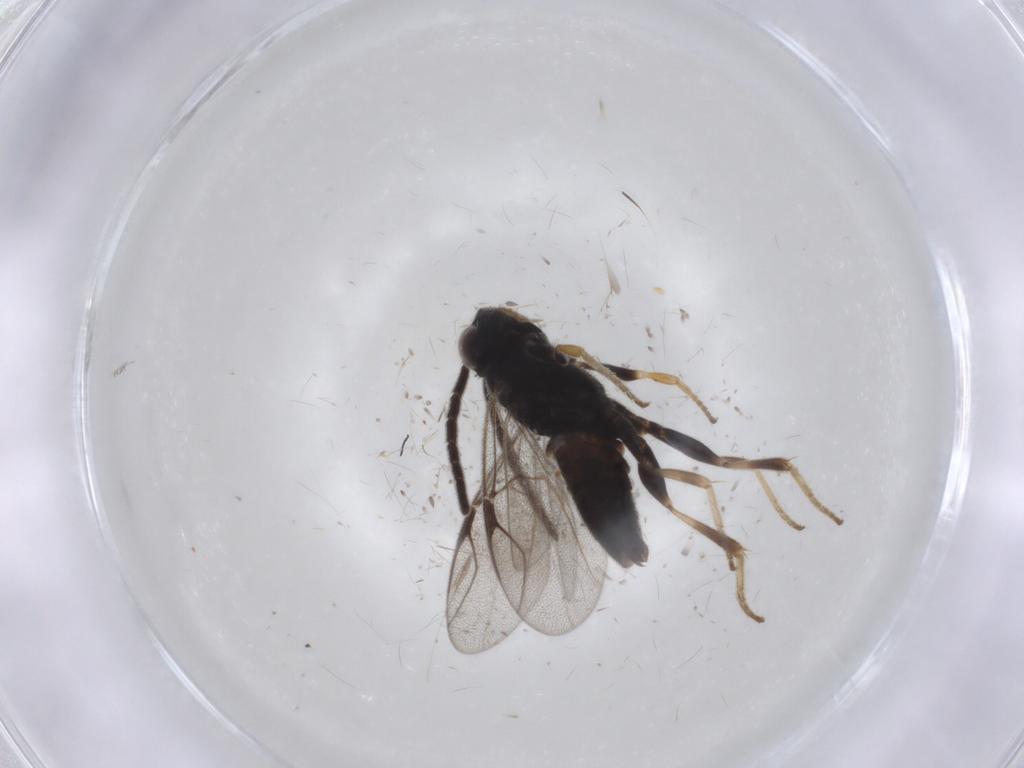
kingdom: Animalia
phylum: Arthropoda
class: Insecta
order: Hymenoptera
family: Dryinidae
